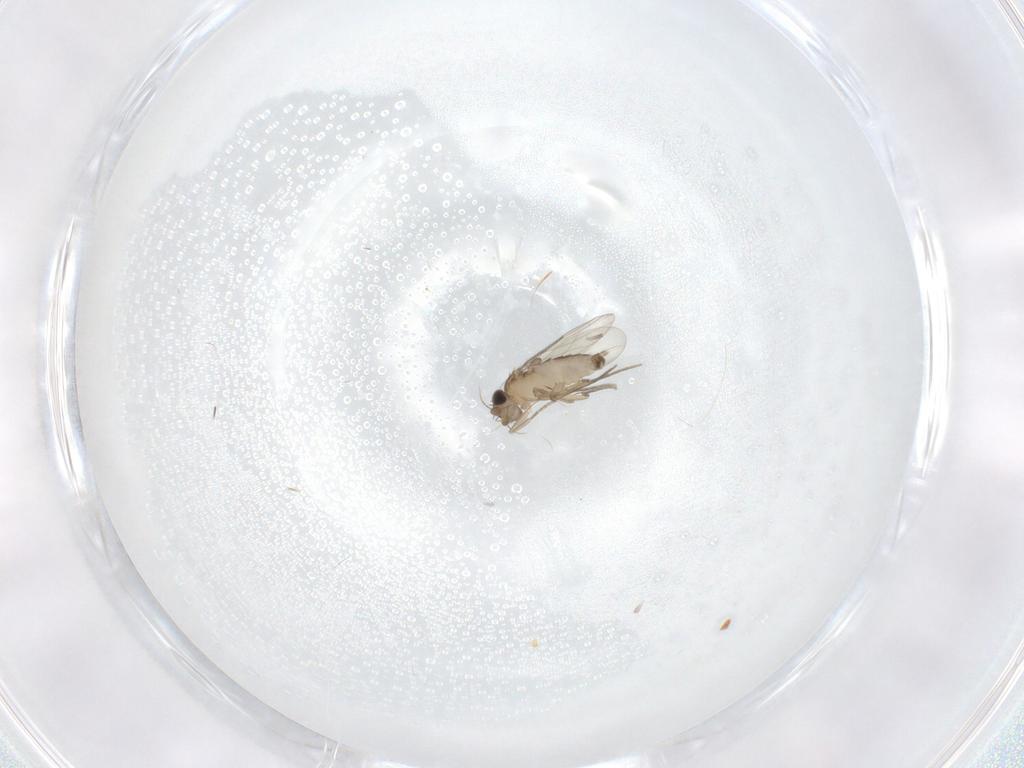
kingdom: Animalia
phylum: Arthropoda
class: Insecta
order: Diptera
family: Phoridae
